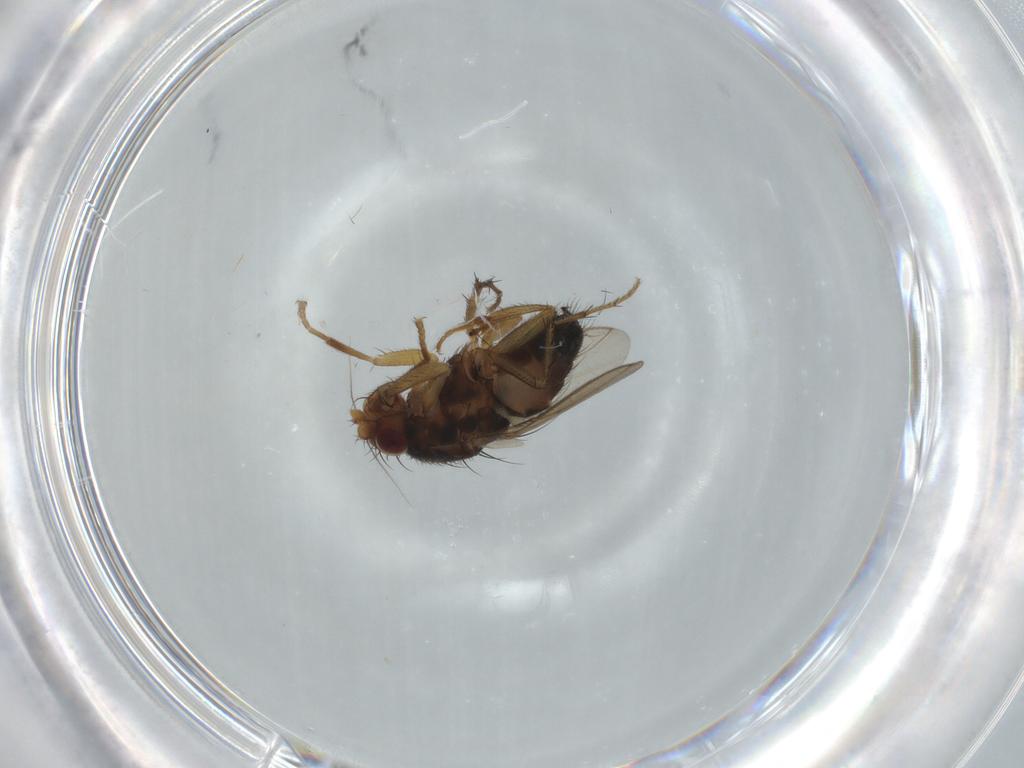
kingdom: Animalia
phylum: Arthropoda
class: Insecta
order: Diptera
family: Sphaeroceridae
